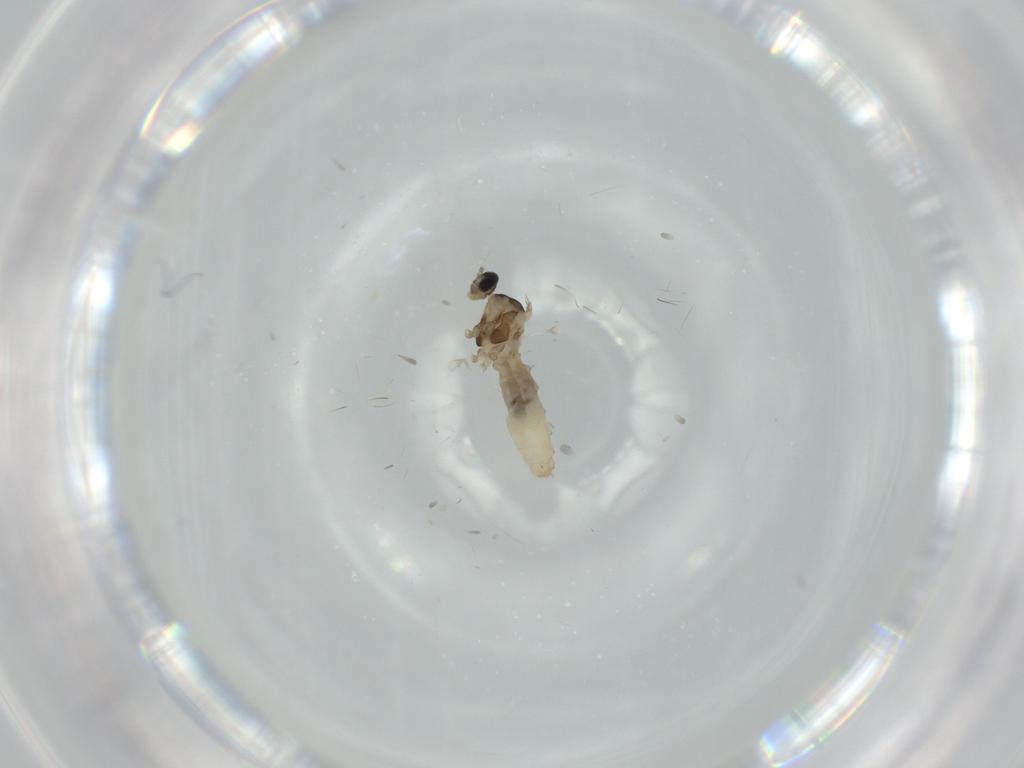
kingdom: Animalia
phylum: Arthropoda
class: Insecta
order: Diptera
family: Cecidomyiidae
